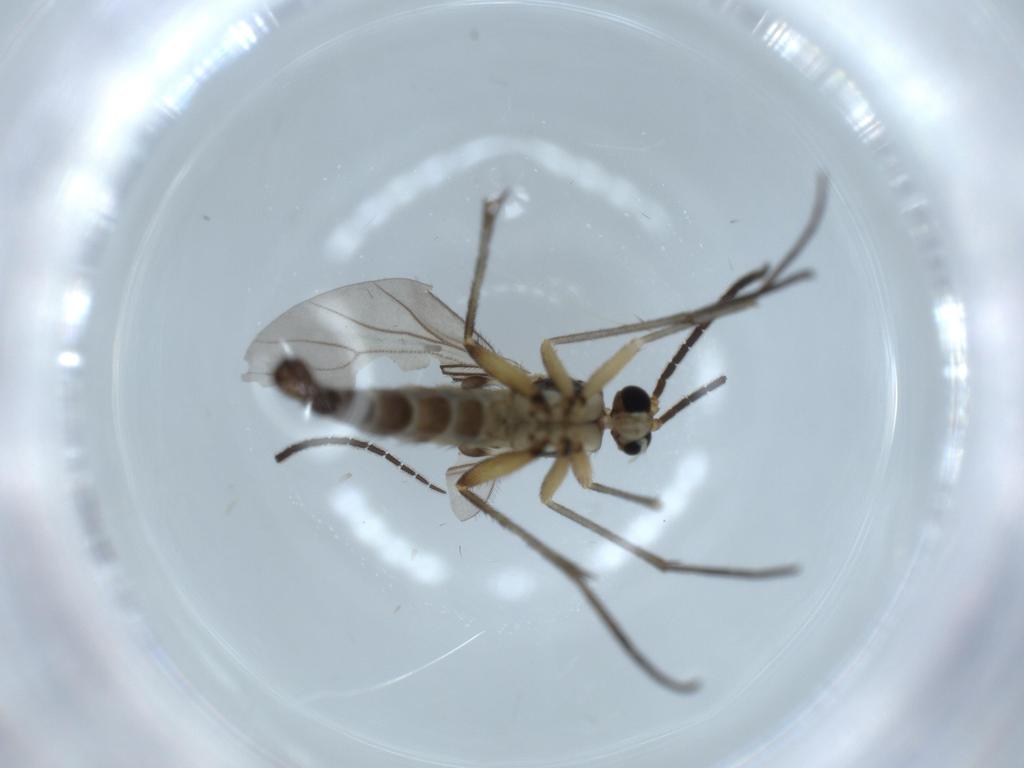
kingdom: Animalia
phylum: Arthropoda
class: Insecta
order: Diptera
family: Sciaridae
